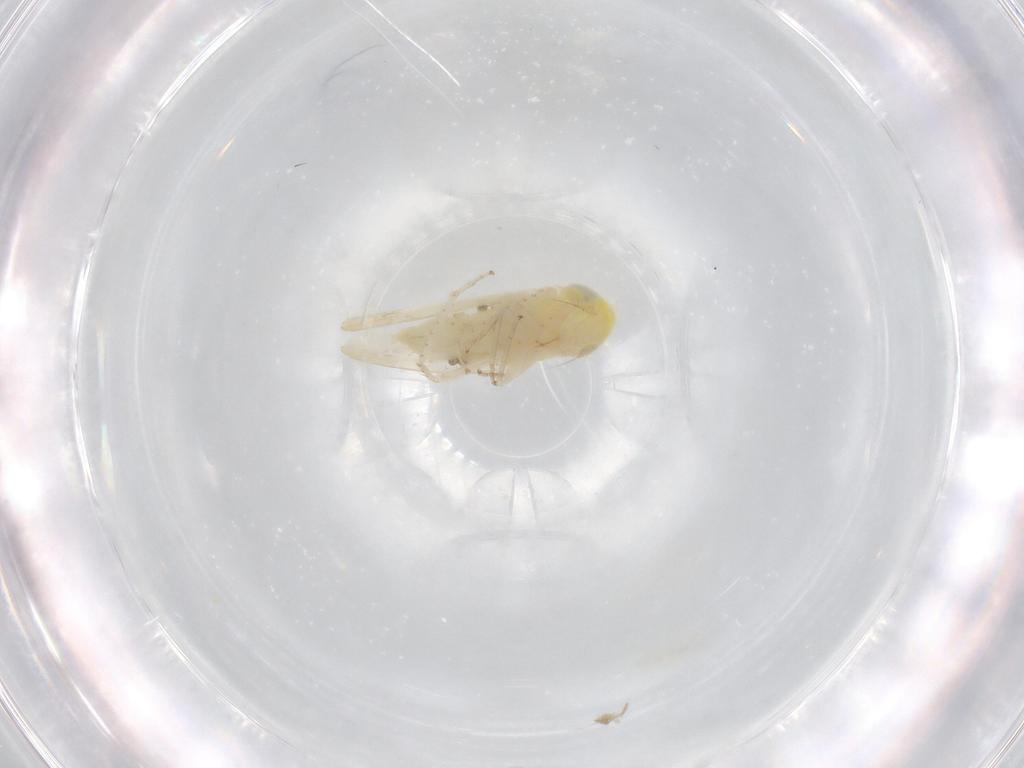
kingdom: Animalia
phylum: Arthropoda
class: Insecta
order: Hemiptera
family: Cicadellidae
